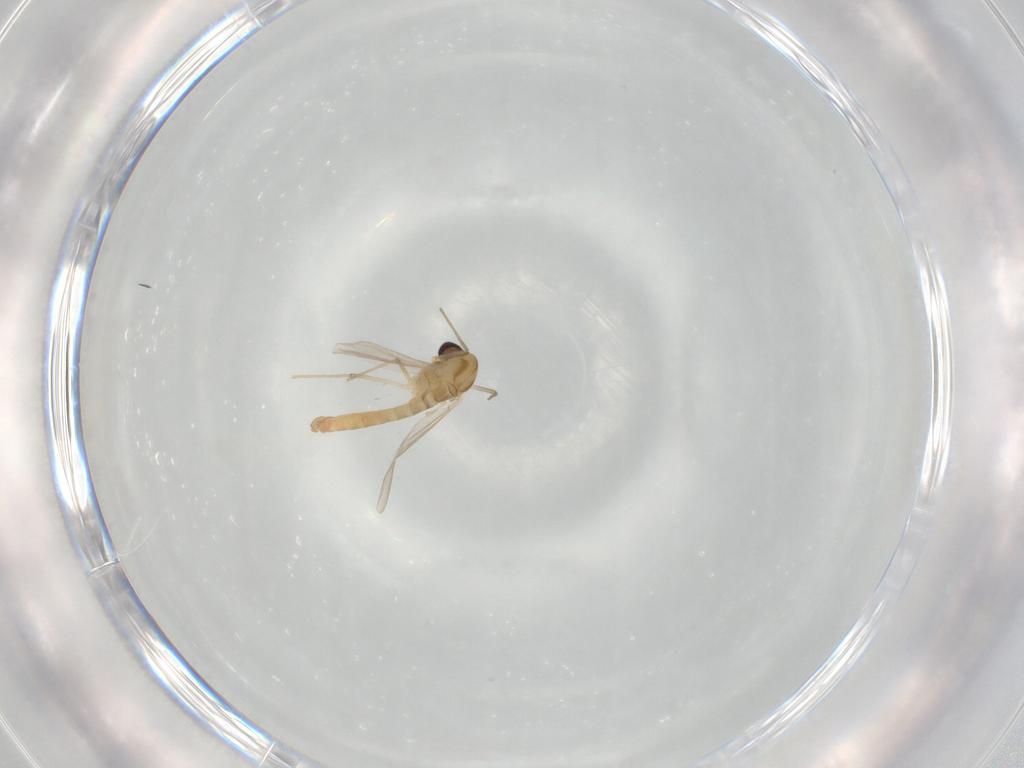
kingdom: Animalia
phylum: Arthropoda
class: Insecta
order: Diptera
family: Chironomidae
